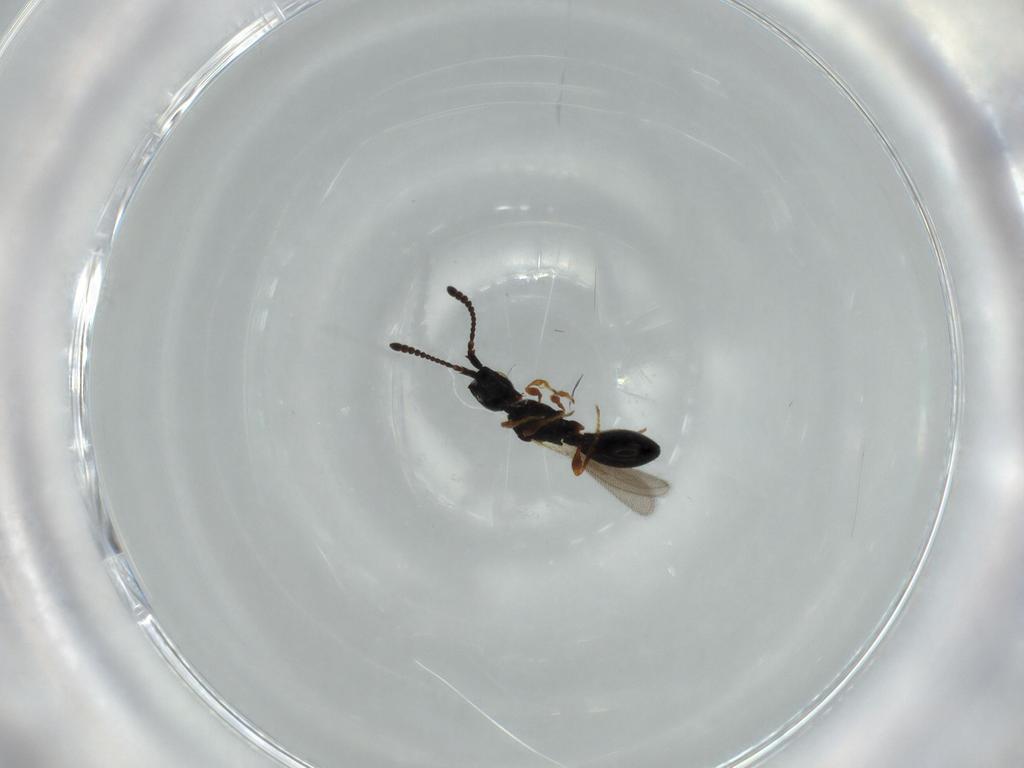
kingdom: Animalia
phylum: Arthropoda
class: Insecta
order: Hymenoptera
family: Diapriidae
